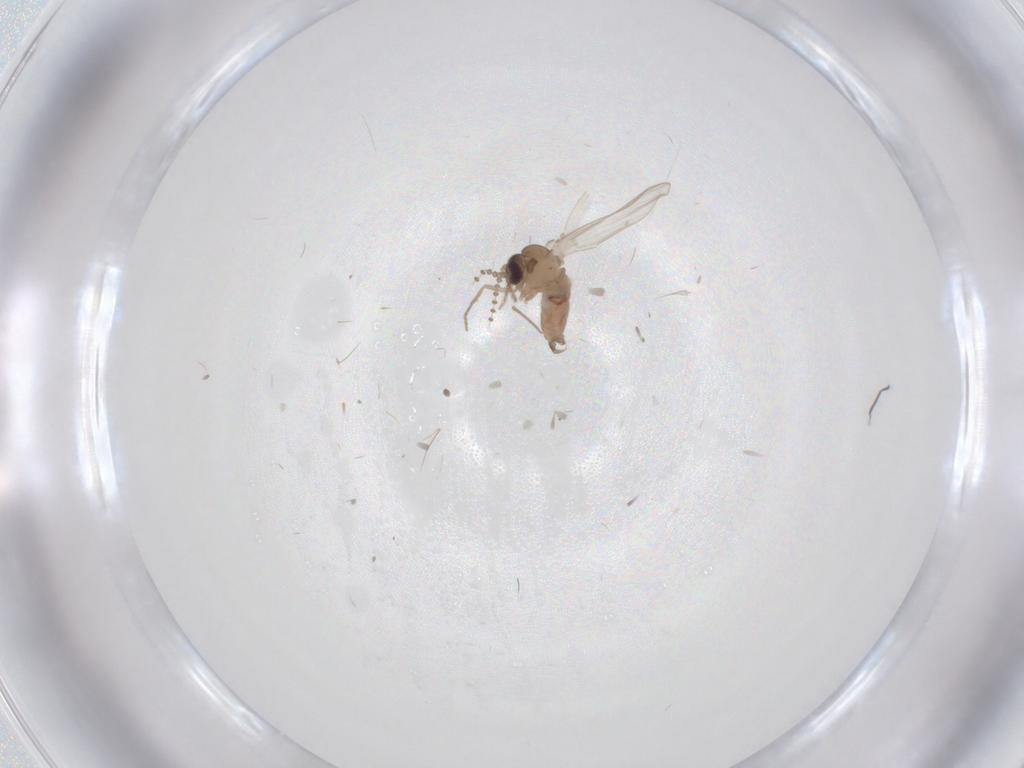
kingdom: Animalia
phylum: Arthropoda
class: Insecta
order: Diptera
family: Psychodidae
